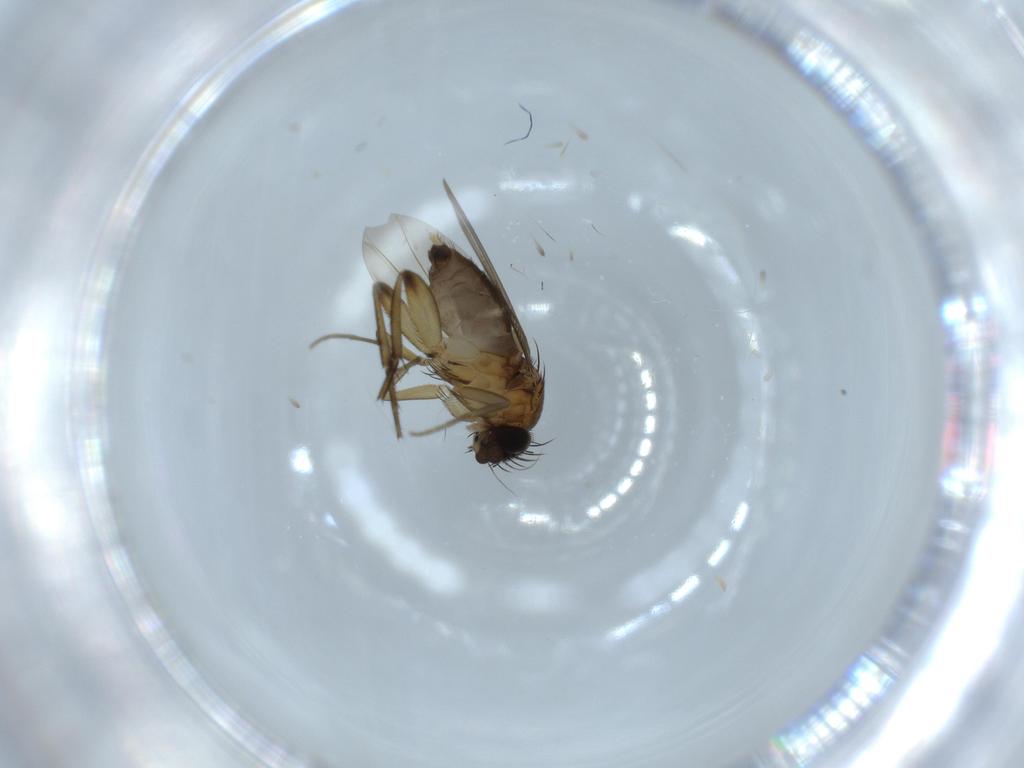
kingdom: Animalia
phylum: Arthropoda
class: Insecta
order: Diptera
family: Phoridae
